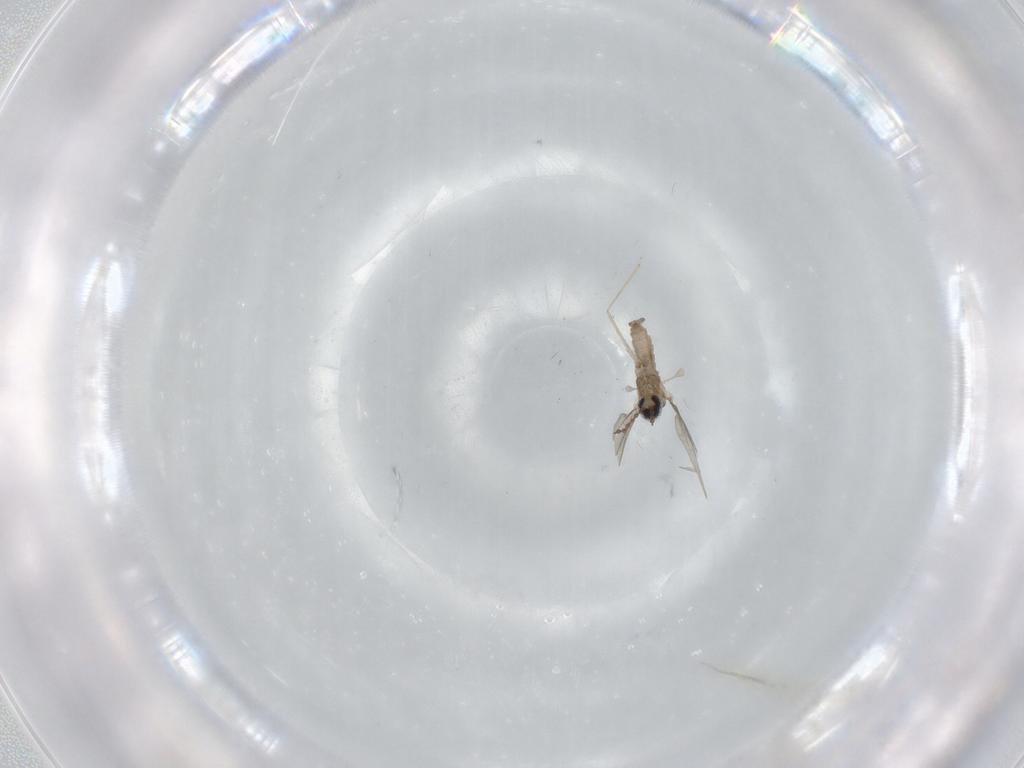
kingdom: Animalia
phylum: Arthropoda
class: Insecta
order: Diptera
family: Cecidomyiidae
